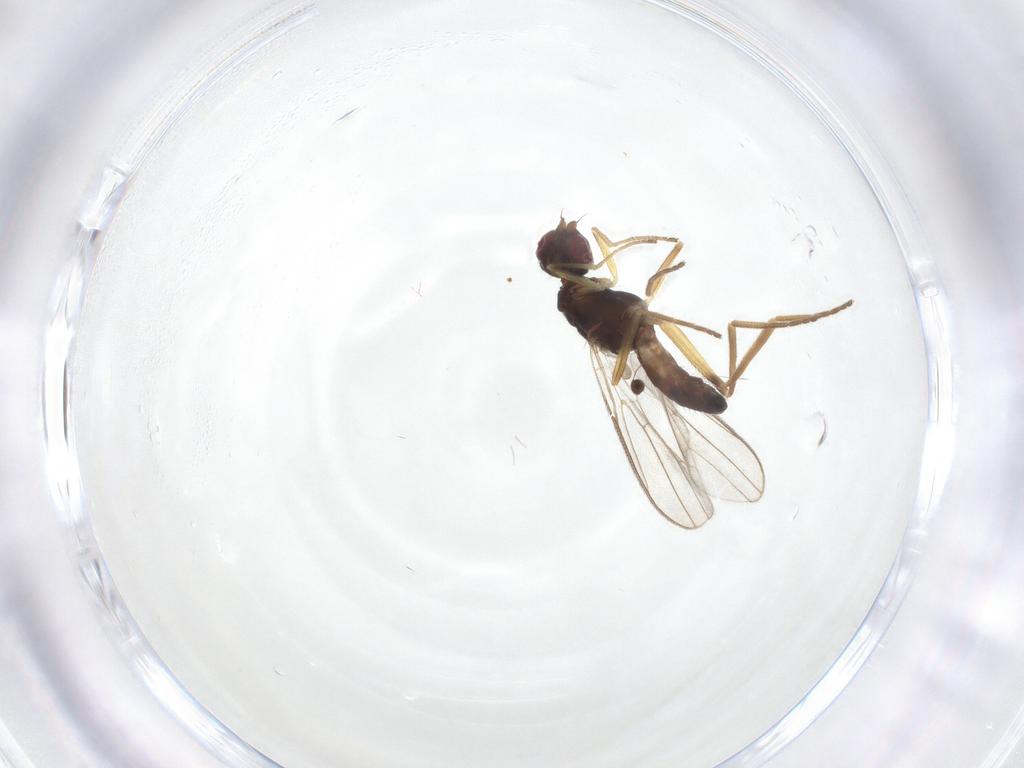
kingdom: Animalia
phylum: Arthropoda
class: Insecta
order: Diptera
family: Phoridae
